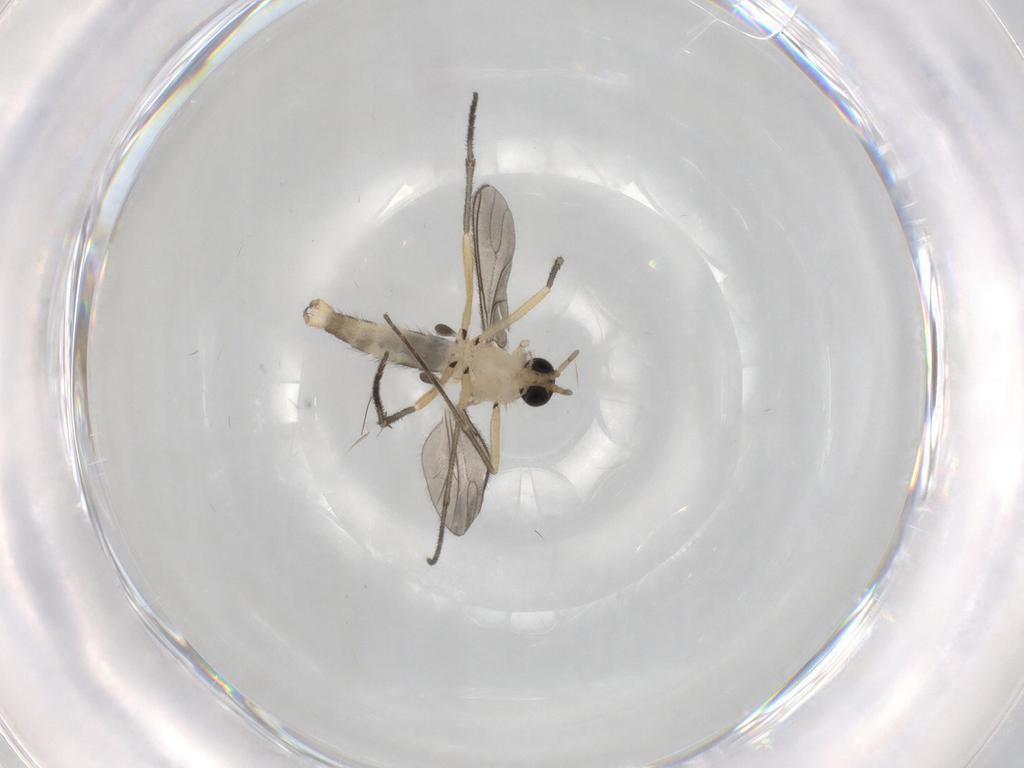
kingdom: Animalia
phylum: Arthropoda
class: Insecta
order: Diptera
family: Sciaridae
